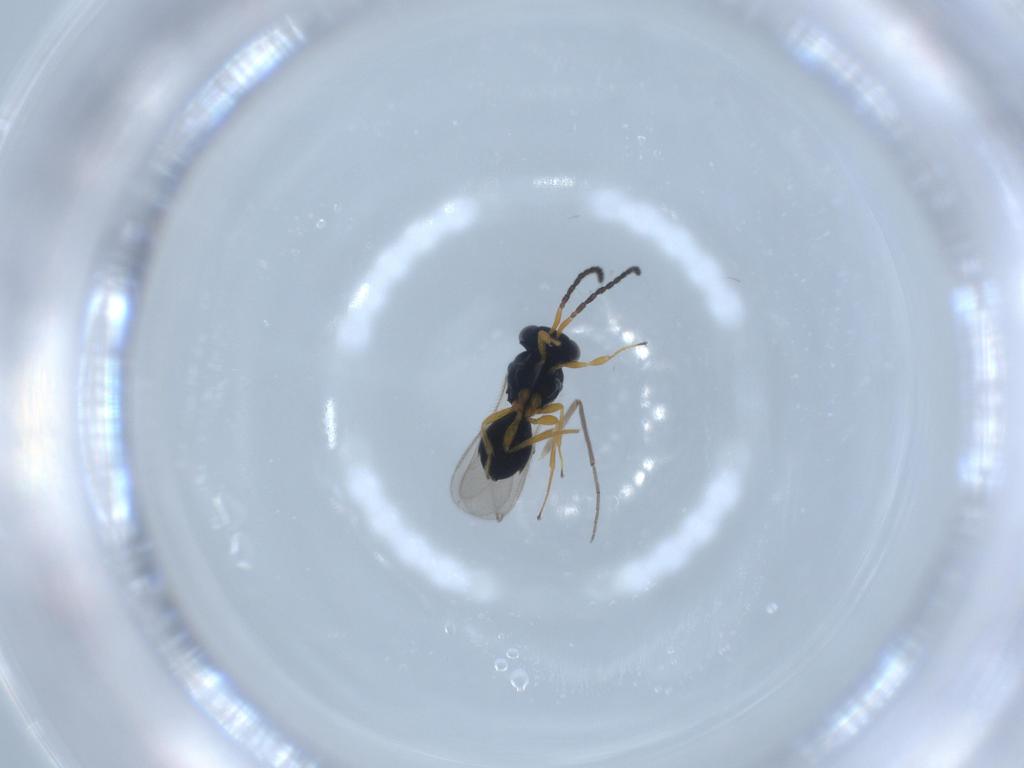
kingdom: Animalia
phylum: Arthropoda
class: Insecta
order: Hymenoptera
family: Scelionidae
